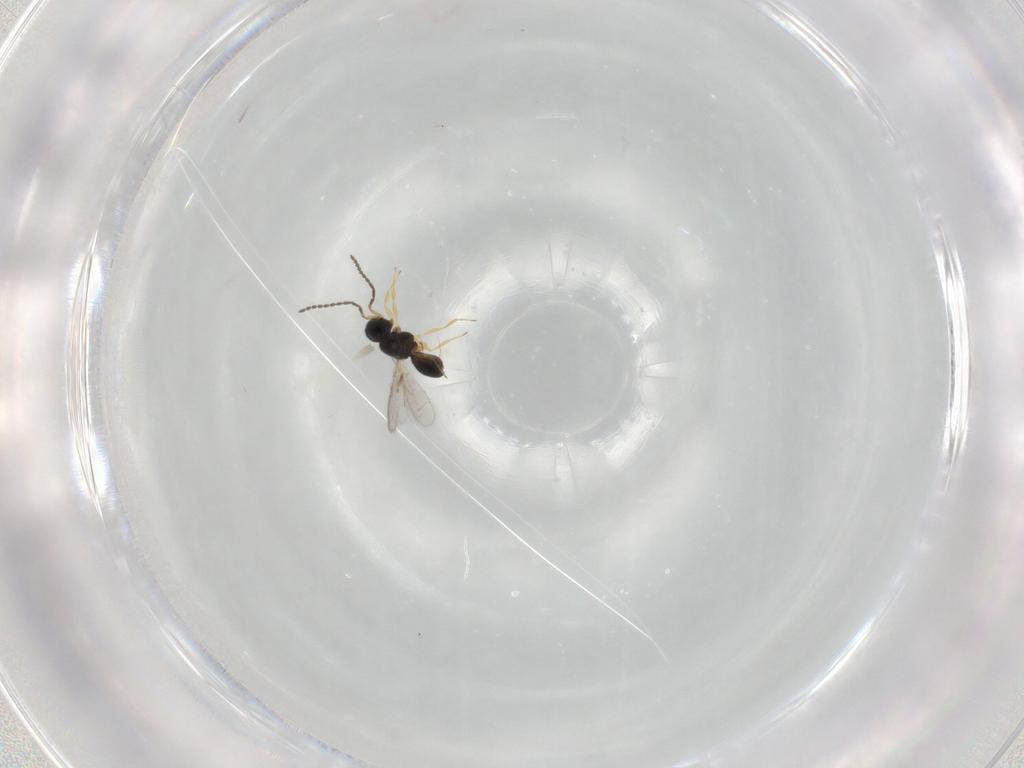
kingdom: Animalia
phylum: Arthropoda
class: Insecta
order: Hymenoptera
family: Scelionidae
